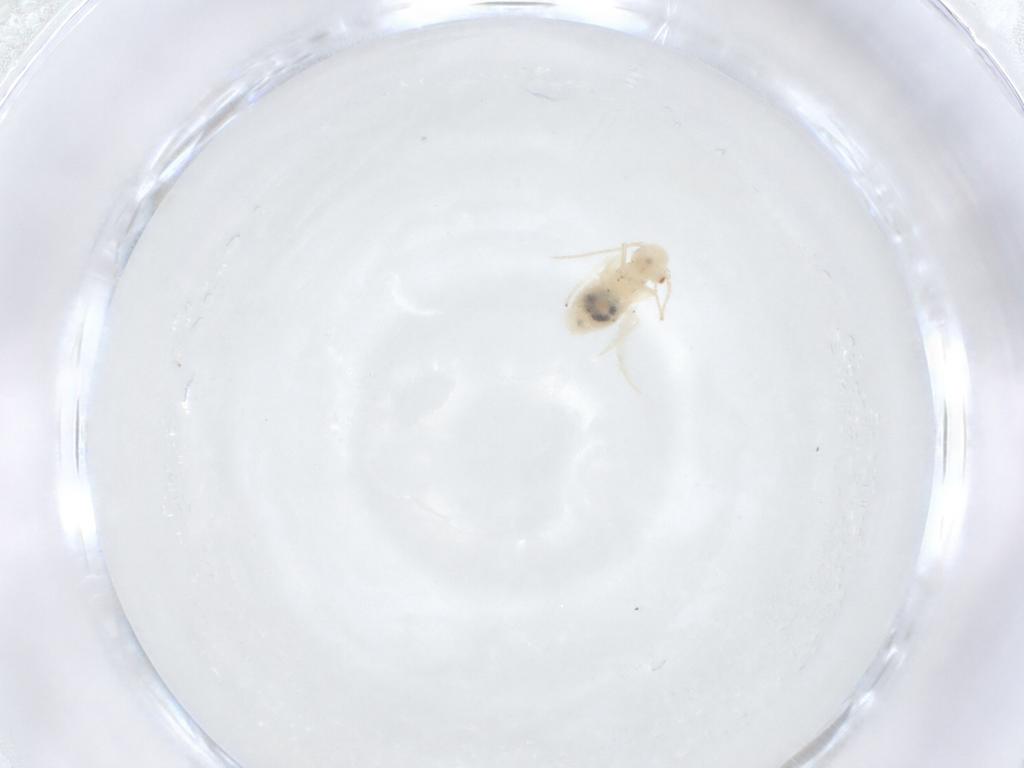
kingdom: Animalia
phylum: Arthropoda
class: Insecta
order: Psocodea
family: Caeciliusidae
